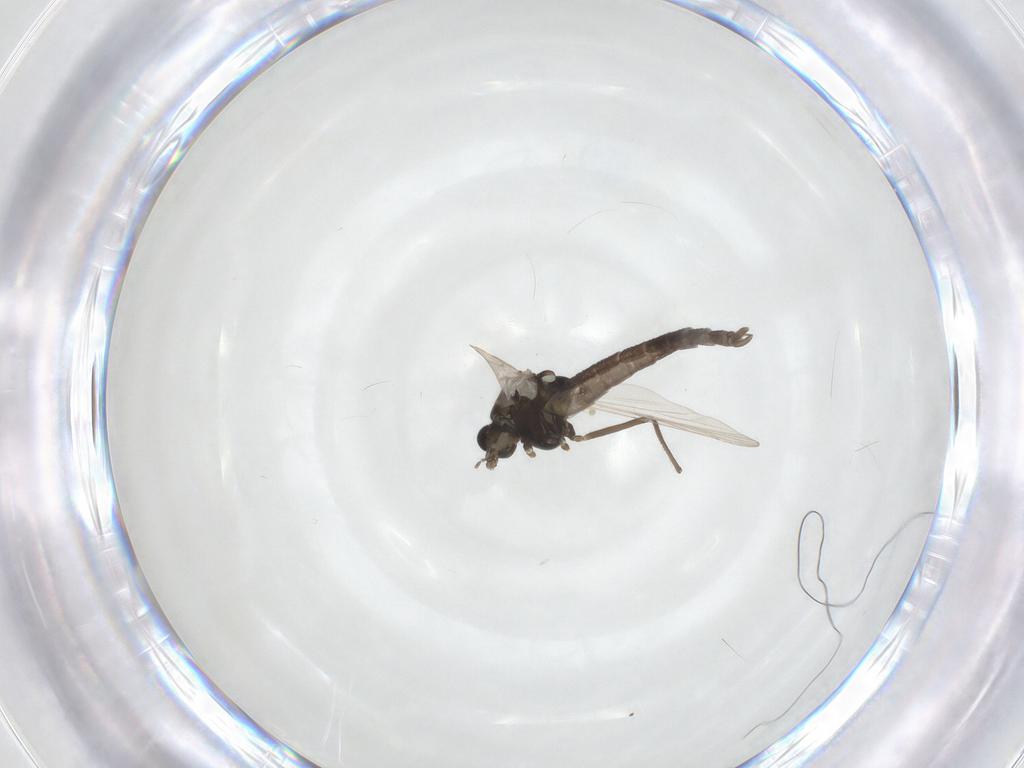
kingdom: Animalia
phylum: Arthropoda
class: Insecta
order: Diptera
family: Chironomidae
